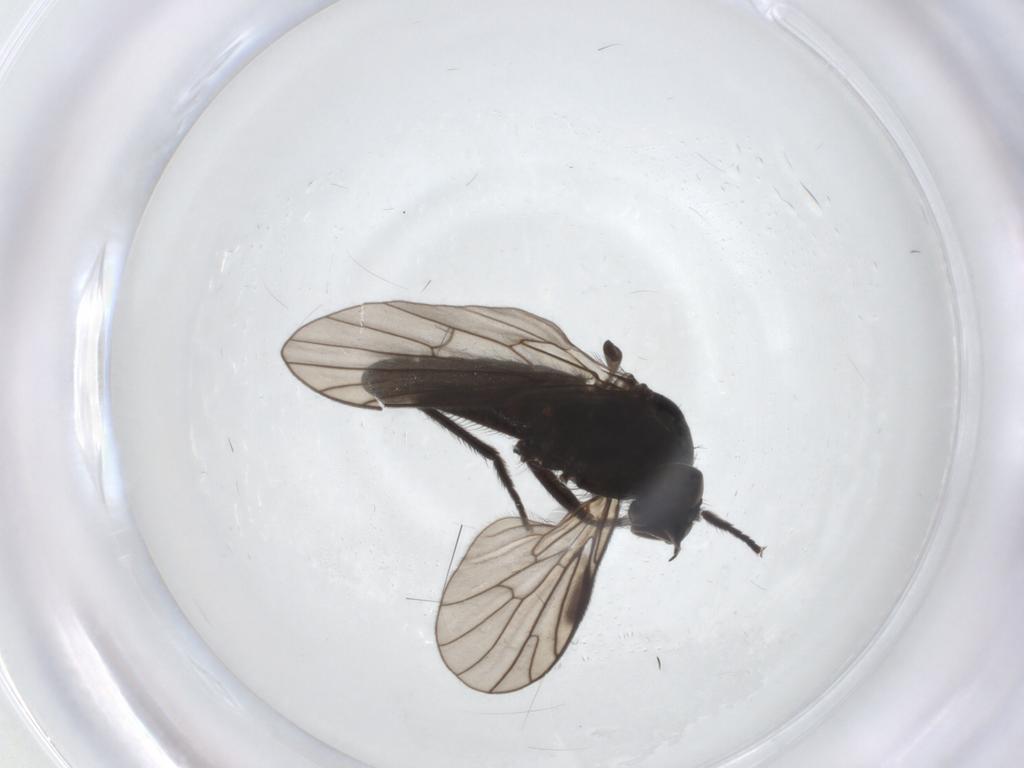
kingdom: Animalia
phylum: Arthropoda
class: Insecta
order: Diptera
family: Empididae
